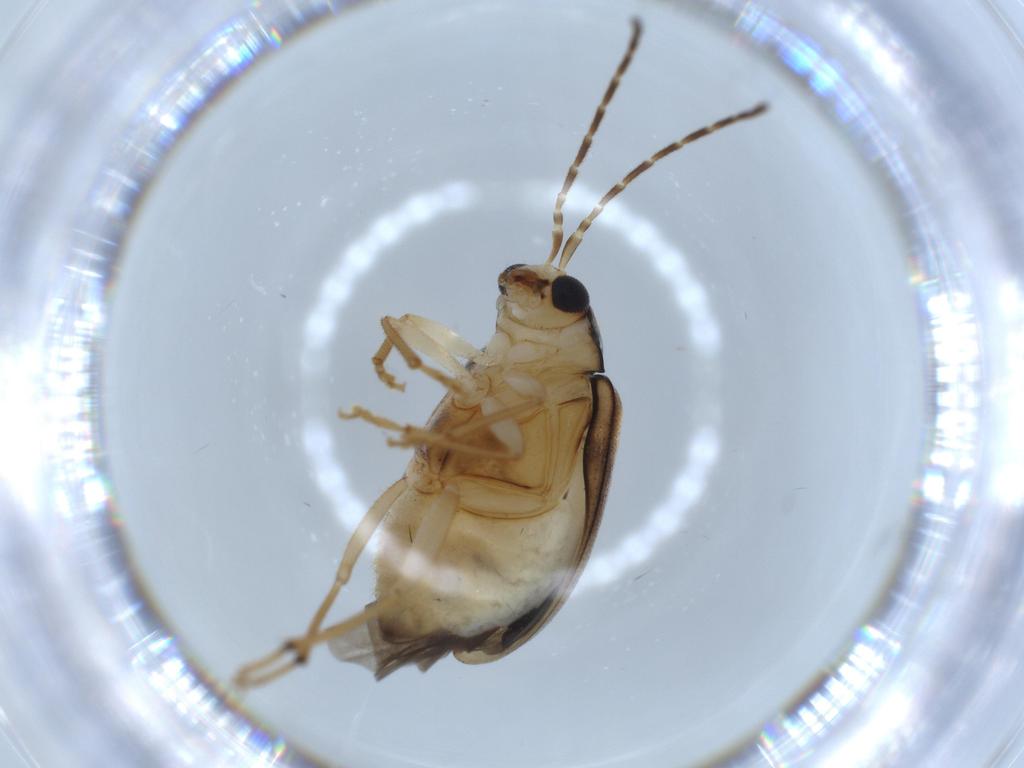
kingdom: Animalia
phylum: Arthropoda
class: Insecta
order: Coleoptera
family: Chrysomelidae
